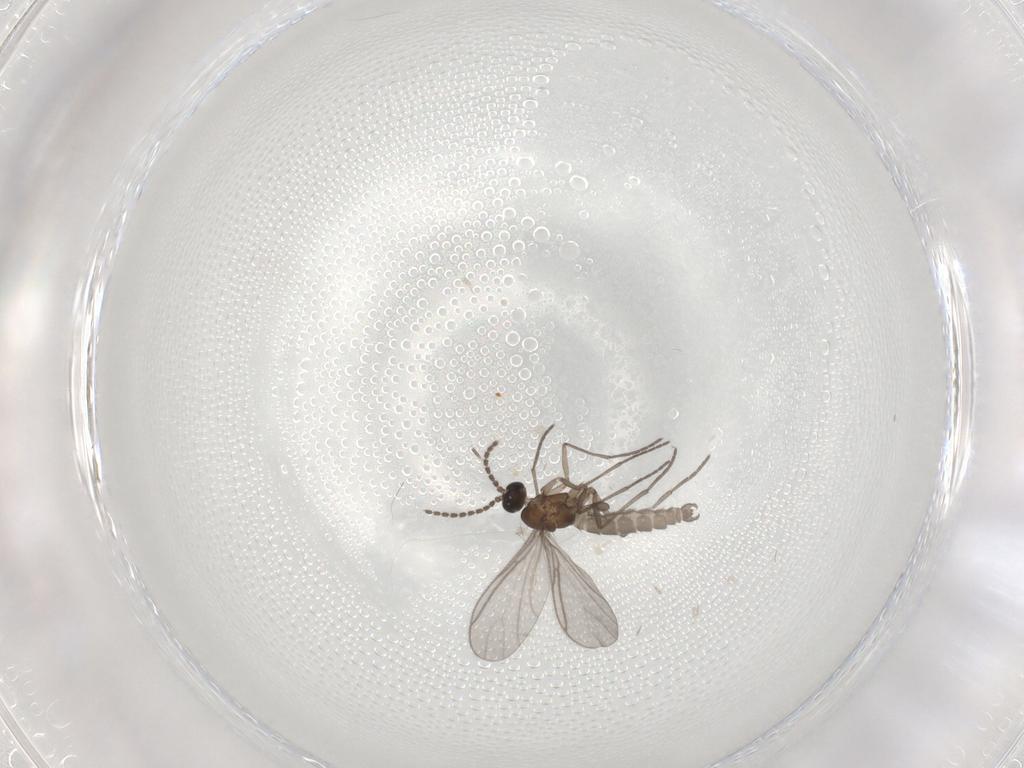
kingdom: Animalia
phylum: Arthropoda
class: Insecta
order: Diptera
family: Sciaridae
